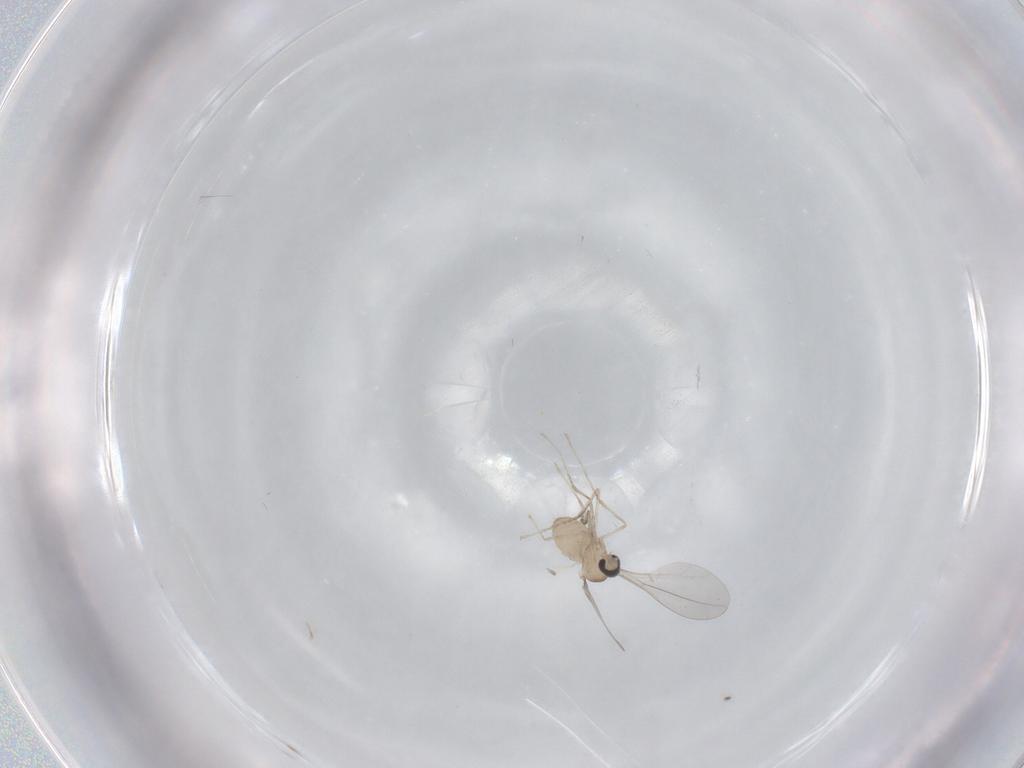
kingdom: Animalia
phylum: Arthropoda
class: Insecta
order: Diptera
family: Cecidomyiidae
